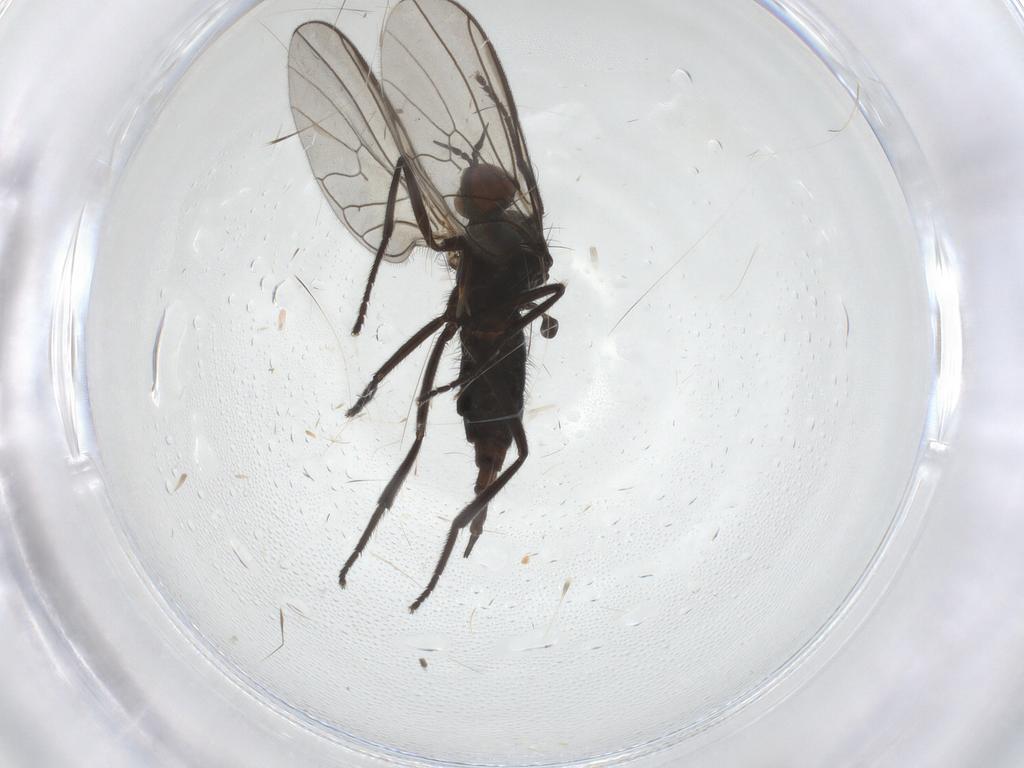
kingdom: Animalia
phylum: Arthropoda
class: Insecta
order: Diptera
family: Empididae
